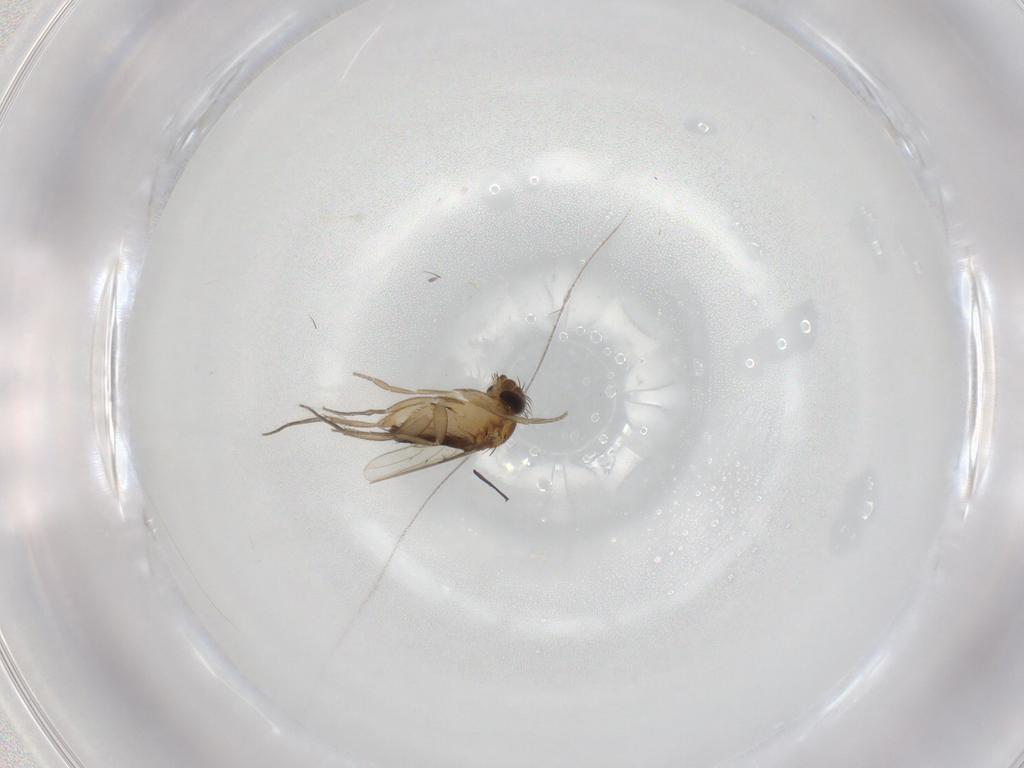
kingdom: Animalia
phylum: Arthropoda
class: Insecta
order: Diptera
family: Phoridae
